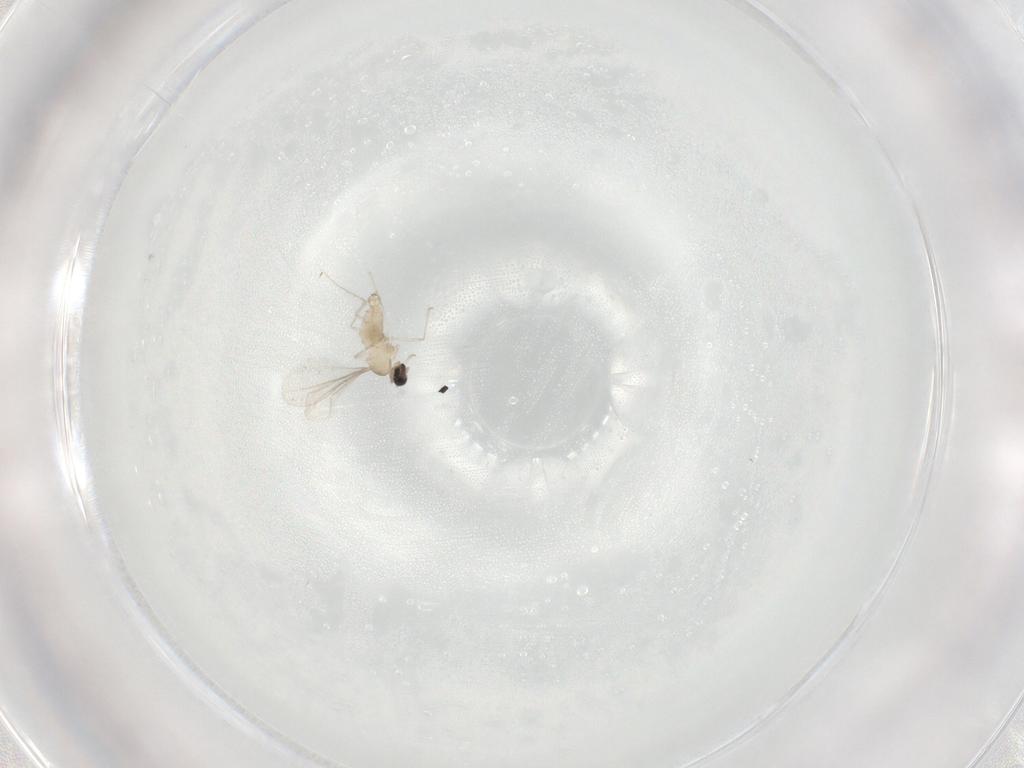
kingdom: Animalia
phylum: Arthropoda
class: Insecta
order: Diptera
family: Cecidomyiidae
